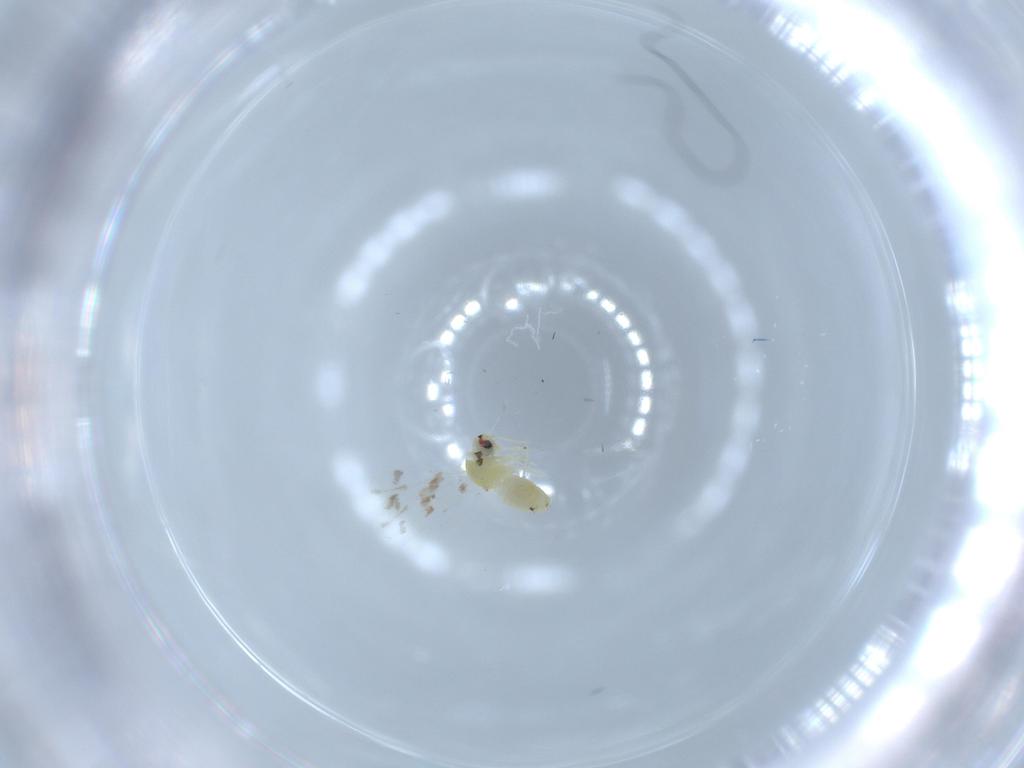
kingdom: Animalia
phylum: Arthropoda
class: Insecta
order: Hemiptera
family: Aleyrodidae
